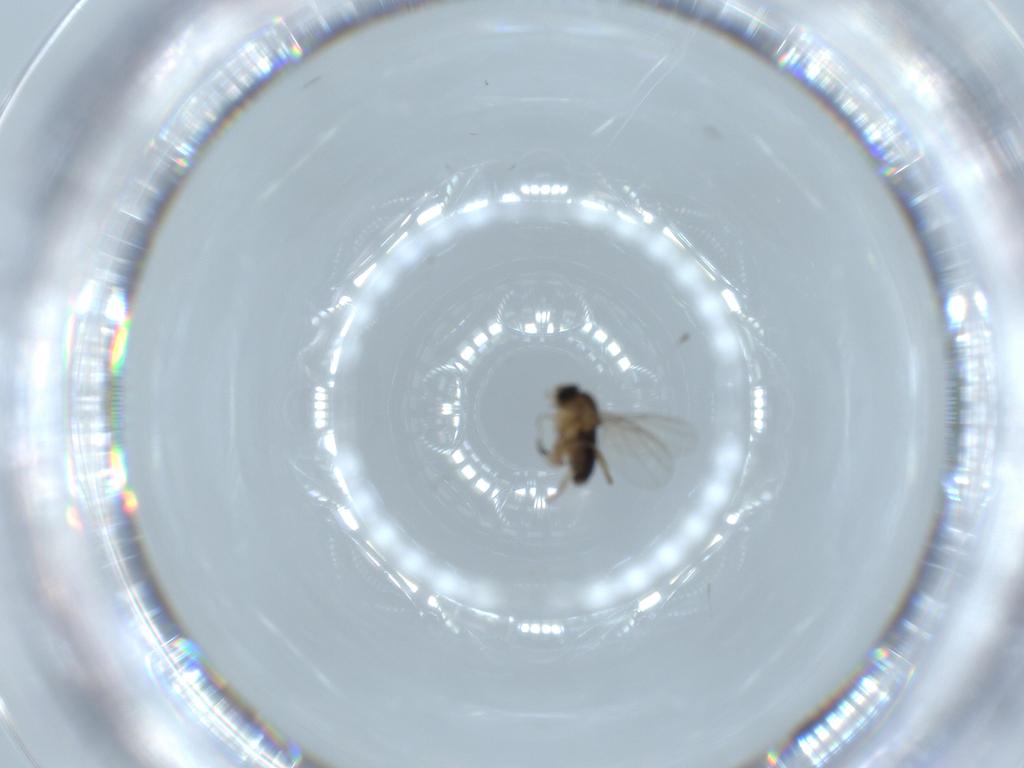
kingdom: Animalia
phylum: Arthropoda
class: Insecta
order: Diptera
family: Phoridae
